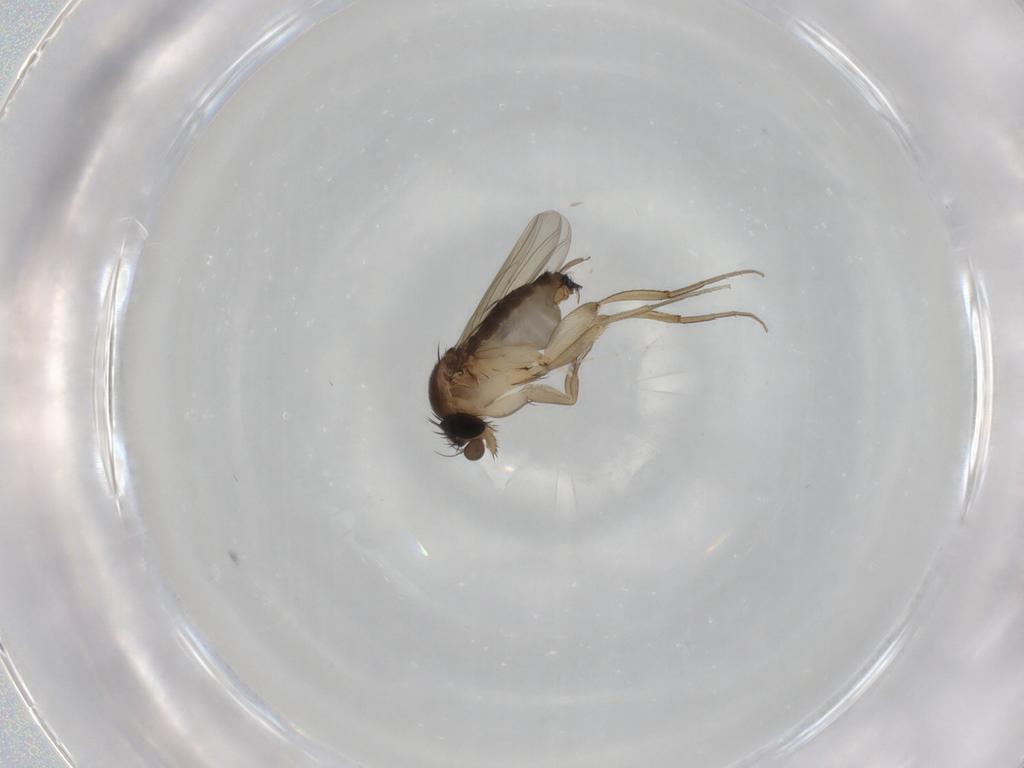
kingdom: Animalia
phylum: Arthropoda
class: Insecta
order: Diptera
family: Phoridae
